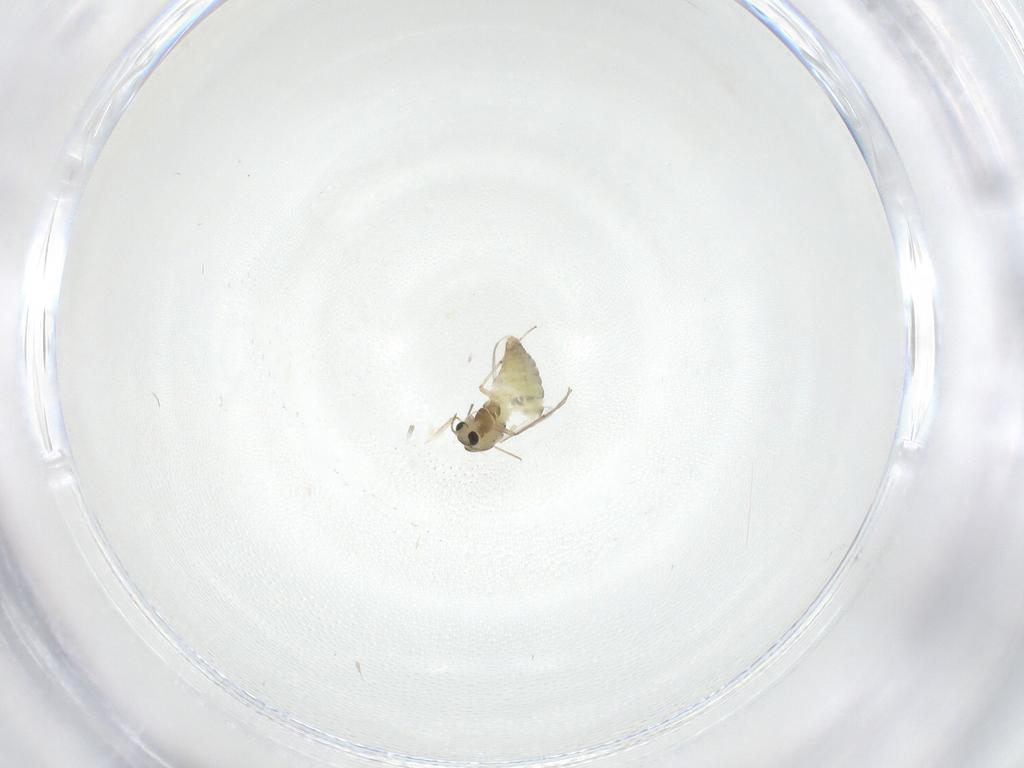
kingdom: Animalia
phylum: Arthropoda
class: Insecta
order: Diptera
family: Chironomidae
